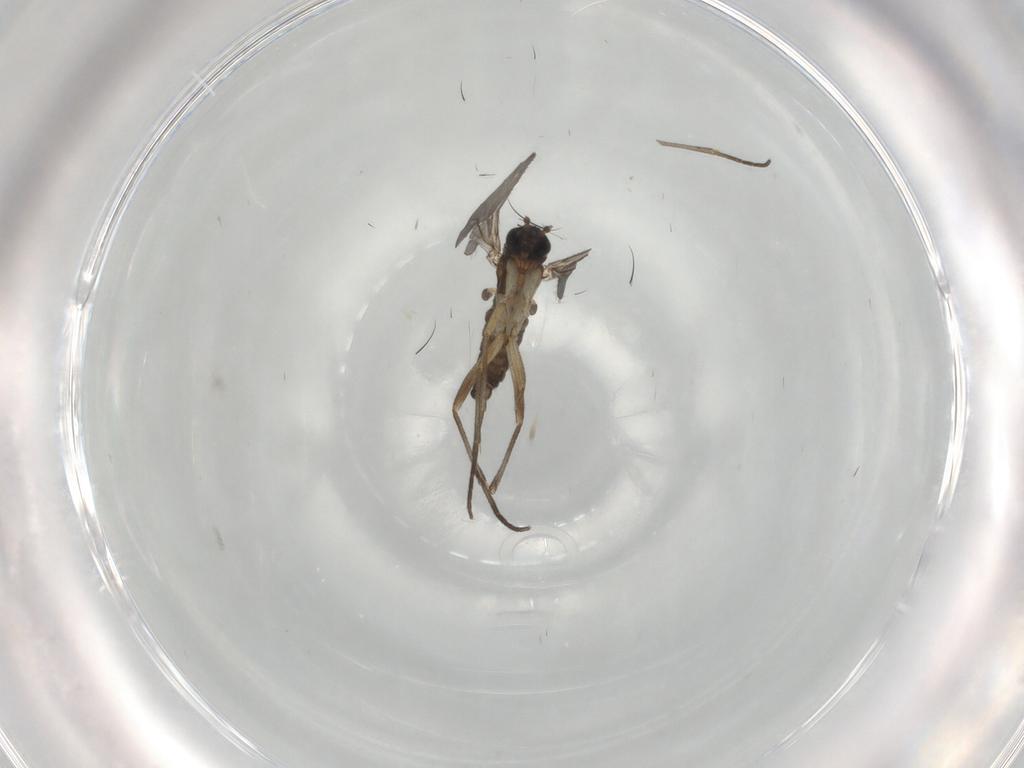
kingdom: Animalia
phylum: Arthropoda
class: Insecta
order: Diptera
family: Sciaridae
